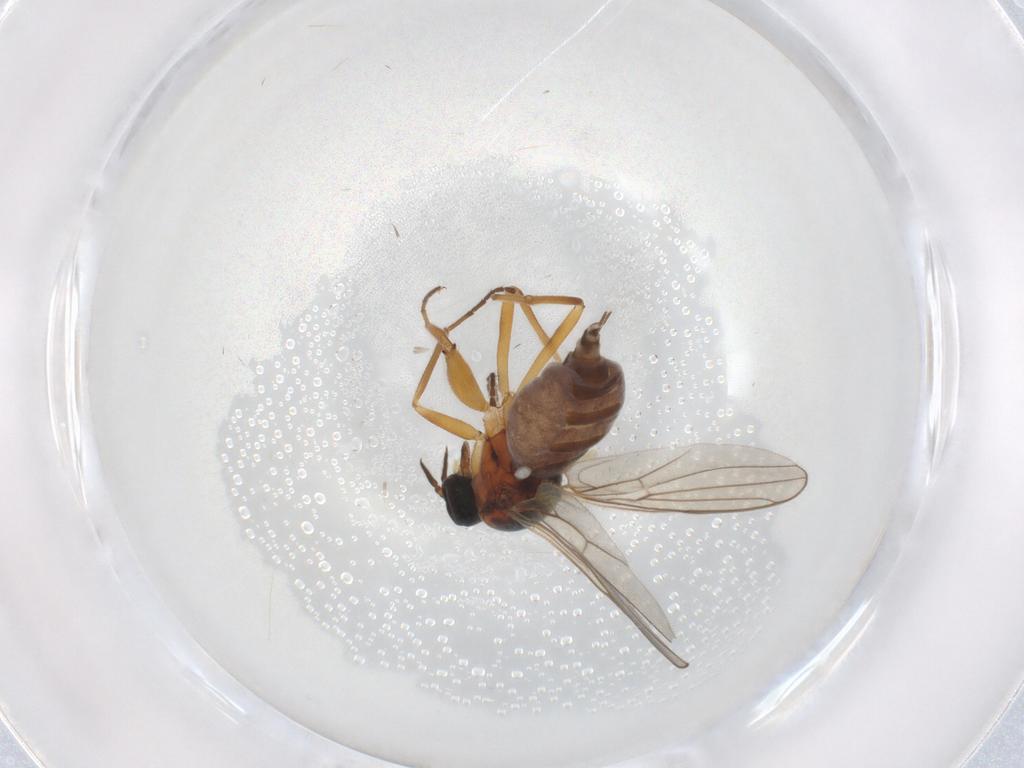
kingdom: Animalia
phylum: Arthropoda
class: Insecta
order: Diptera
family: Hybotidae
